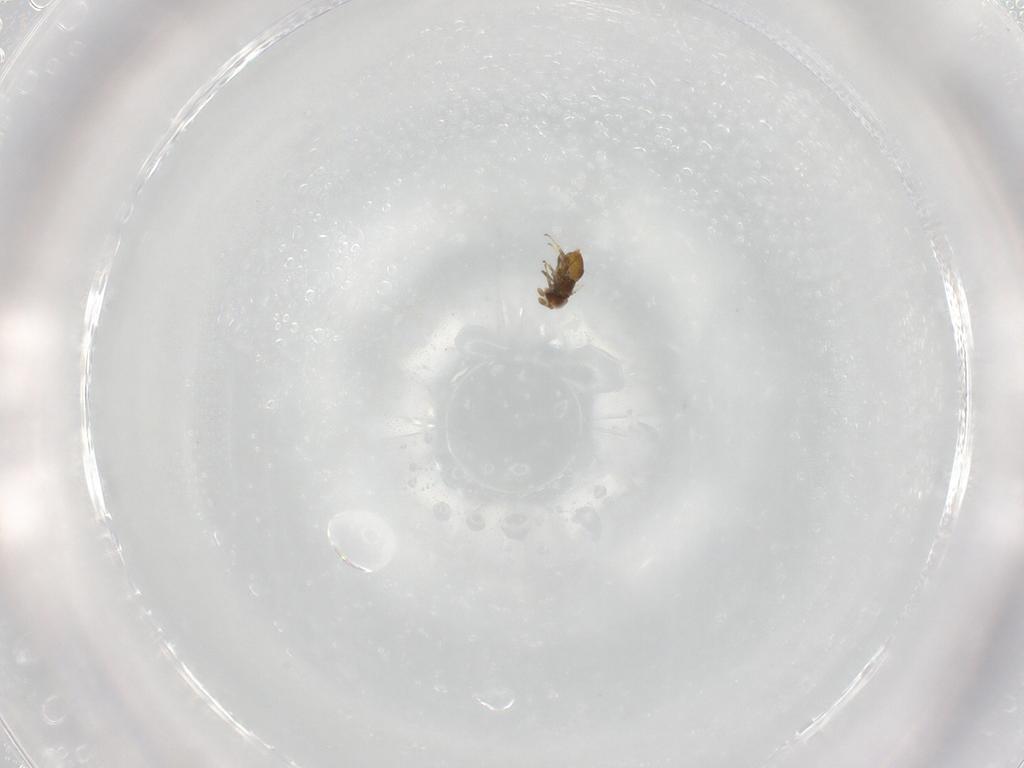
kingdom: Animalia
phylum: Arthropoda
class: Insecta
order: Hymenoptera
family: Encyrtidae
